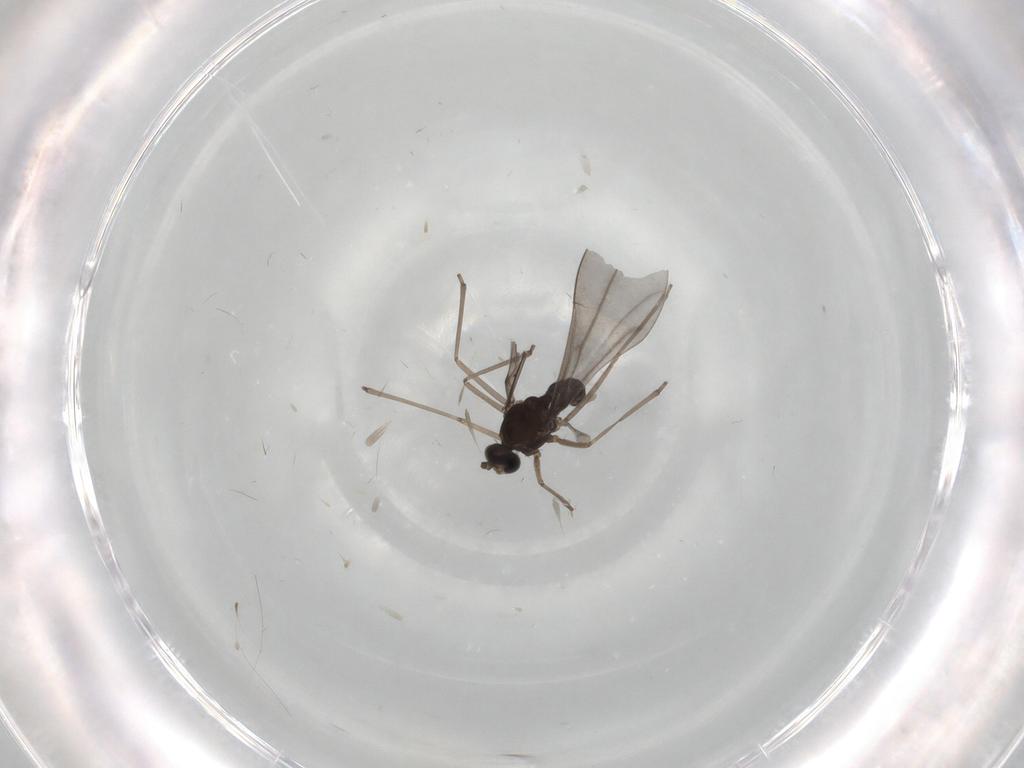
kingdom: Animalia
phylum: Arthropoda
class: Insecta
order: Diptera
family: Cecidomyiidae
